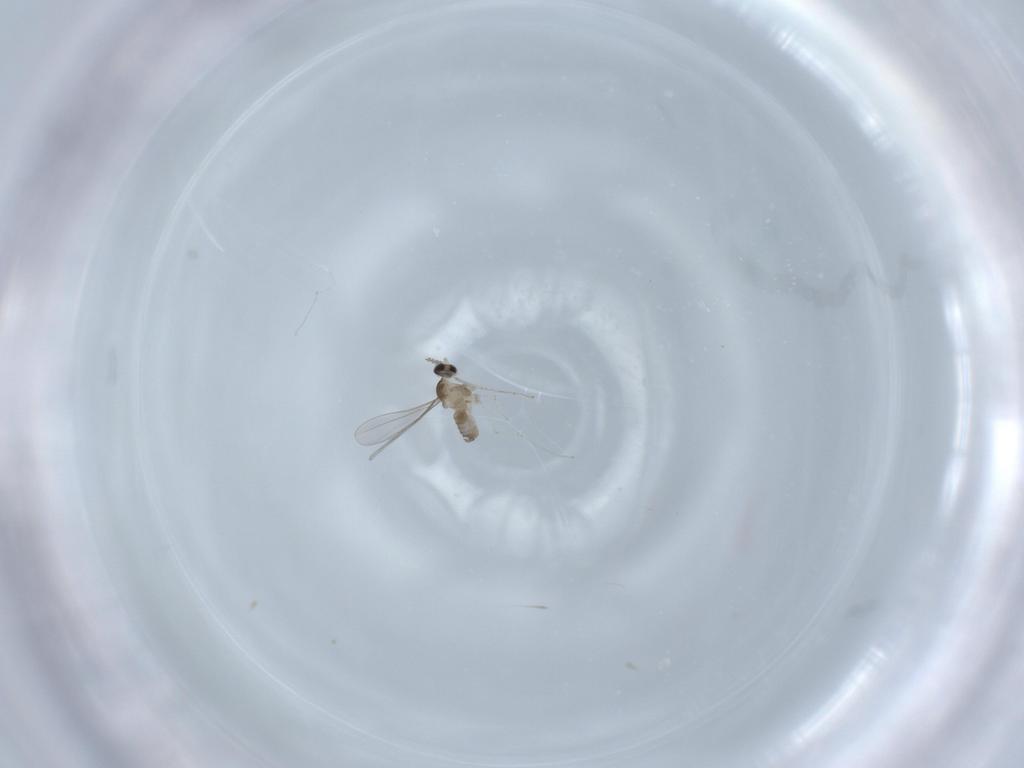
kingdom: Animalia
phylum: Arthropoda
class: Insecta
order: Diptera
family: Cecidomyiidae
